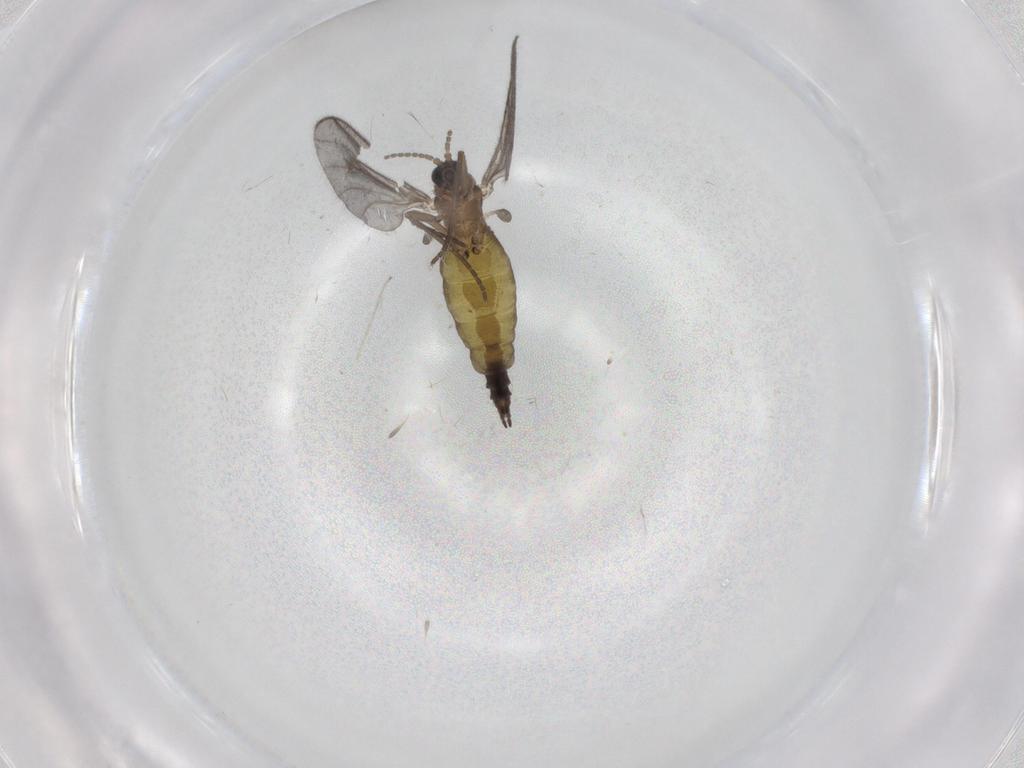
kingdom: Animalia
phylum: Arthropoda
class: Insecta
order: Diptera
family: Sciaridae
